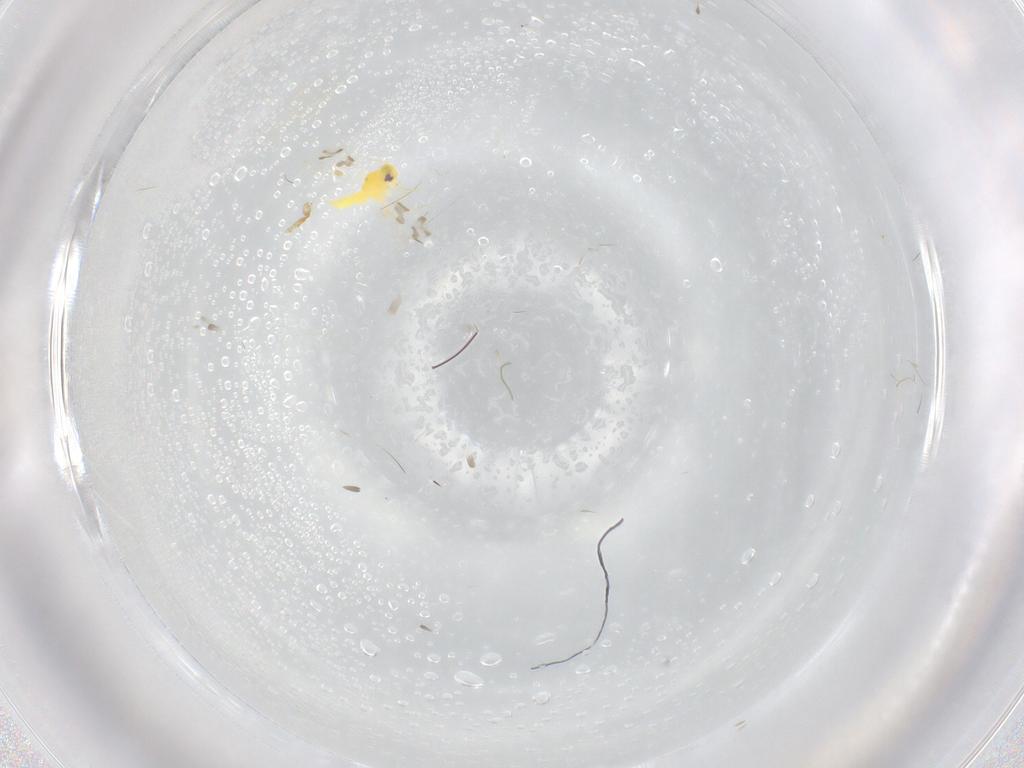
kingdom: Animalia
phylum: Arthropoda
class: Insecta
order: Hemiptera
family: Aleyrodidae
